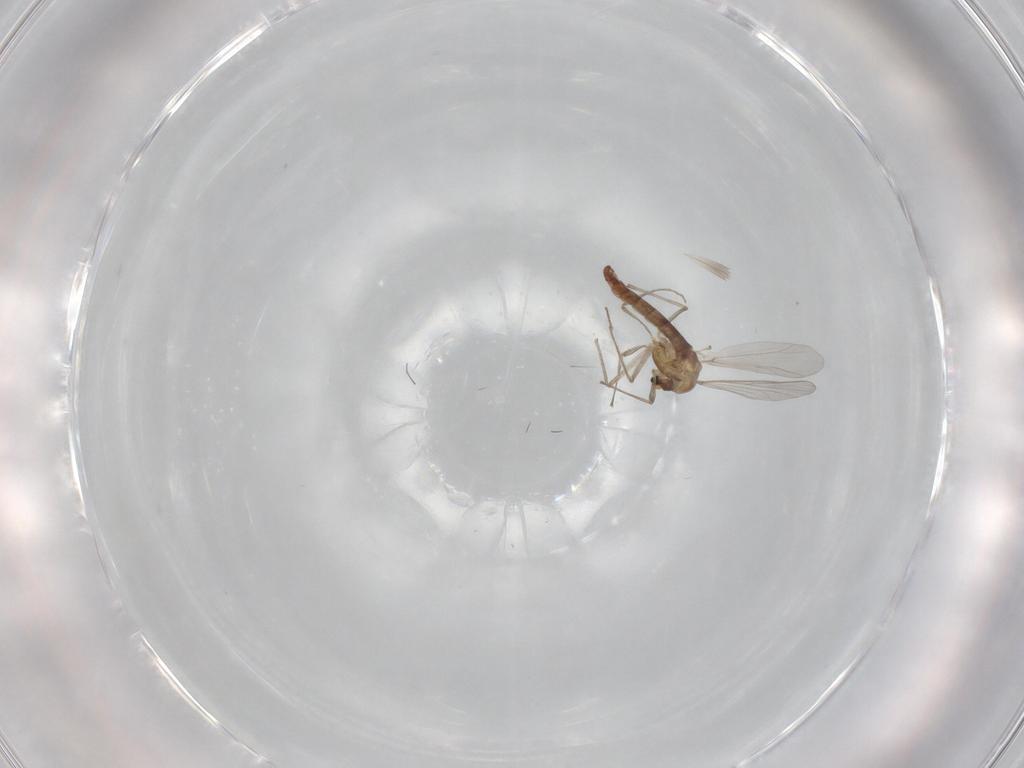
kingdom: Animalia
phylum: Arthropoda
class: Insecta
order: Diptera
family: Chironomidae
